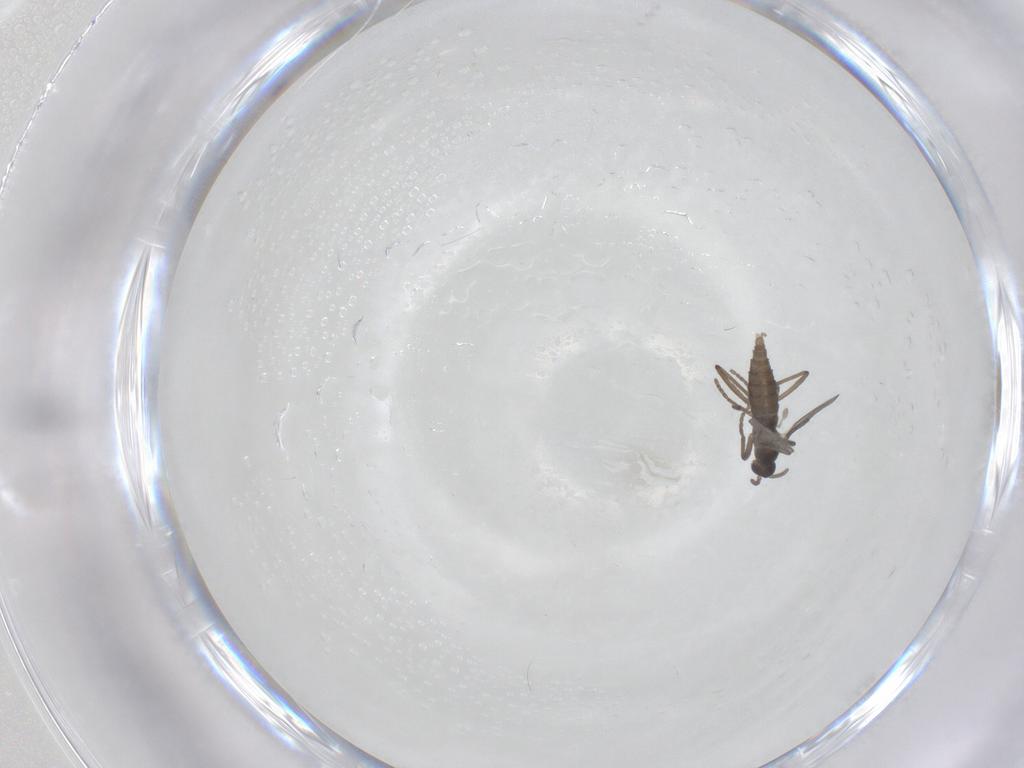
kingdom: Animalia
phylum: Arthropoda
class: Insecta
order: Diptera
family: Cecidomyiidae
